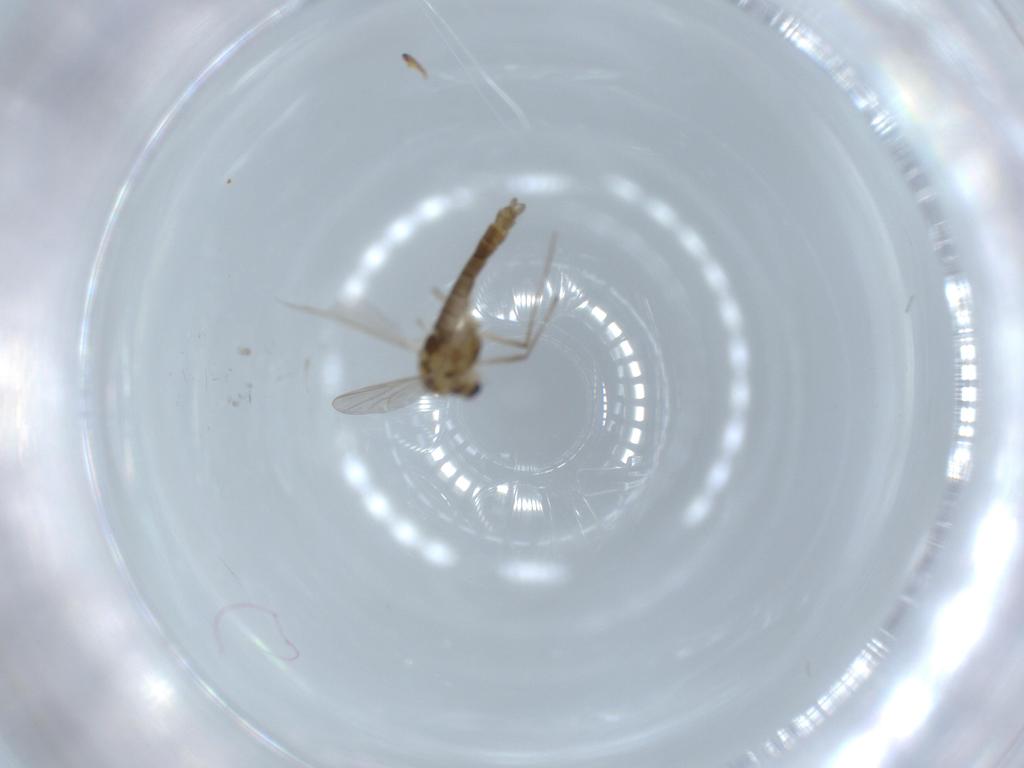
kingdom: Animalia
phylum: Arthropoda
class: Insecta
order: Diptera
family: Chironomidae
